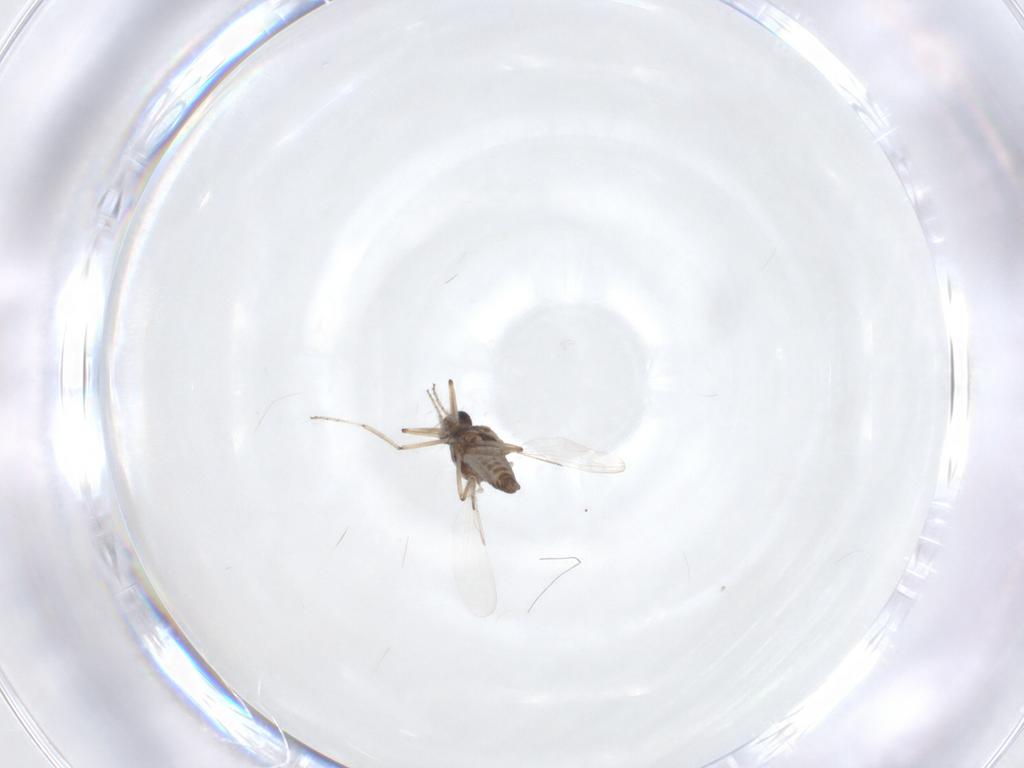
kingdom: Animalia
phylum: Arthropoda
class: Insecta
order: Diptera
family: Ceratopogonidae
